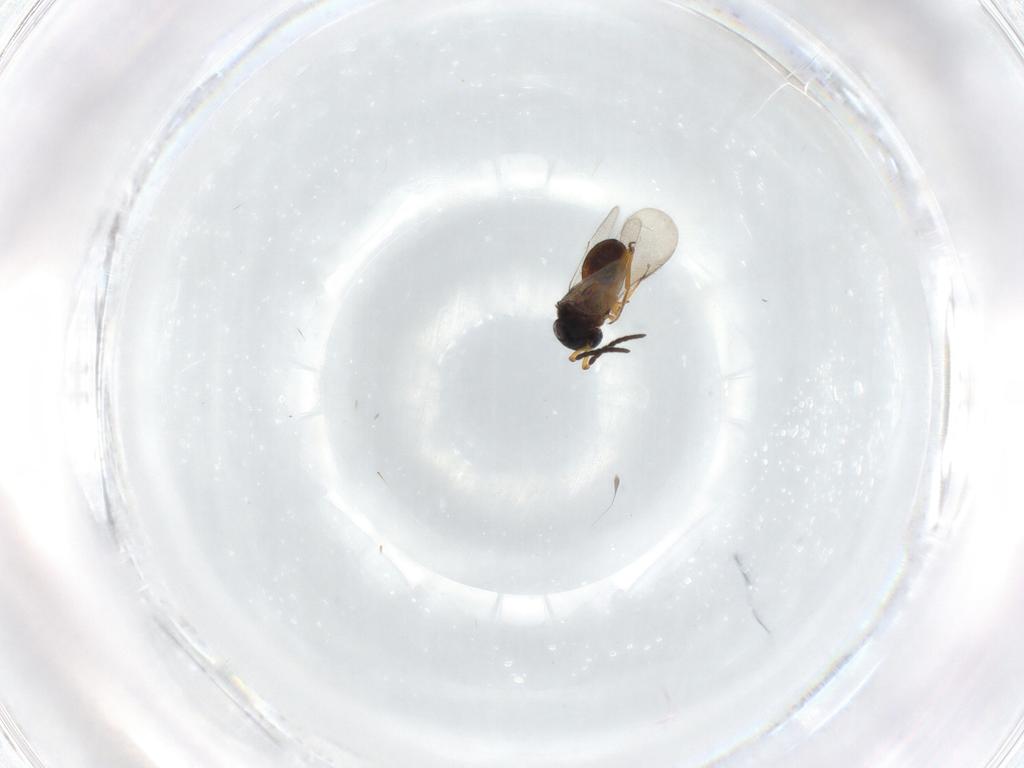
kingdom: Animalia
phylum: Arthropoda
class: Insecta
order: Hymenoptera
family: Scelionidae
